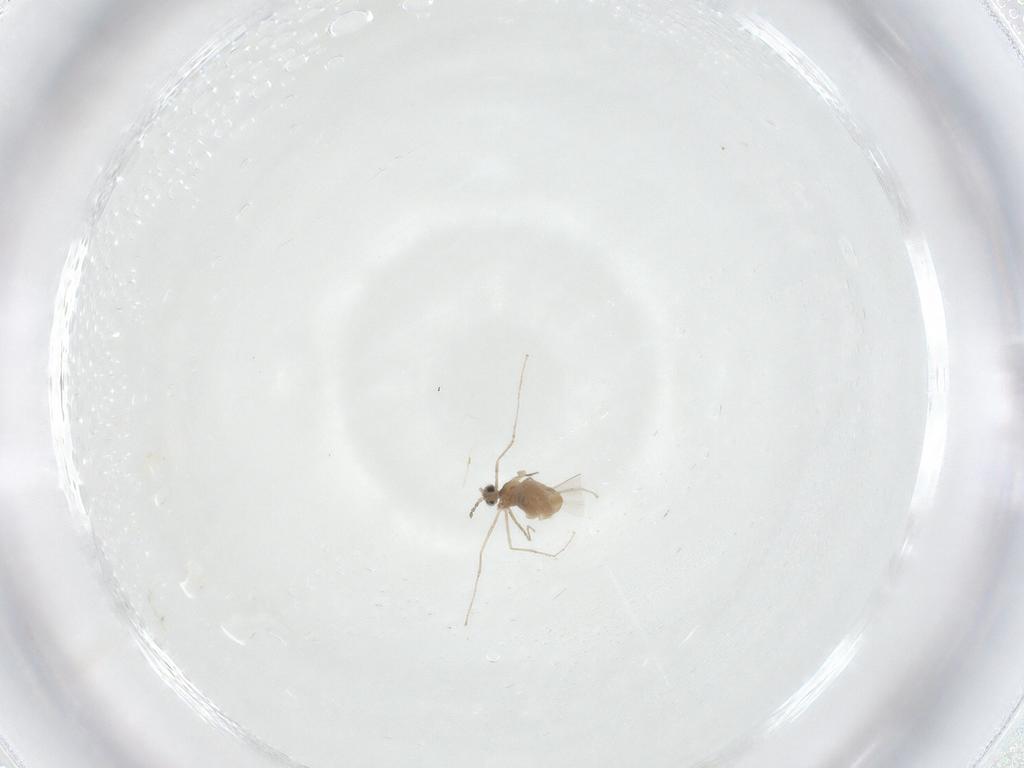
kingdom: Animalia
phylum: Arthropoda
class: Insecta
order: Diptera
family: Cecidomyiidae
